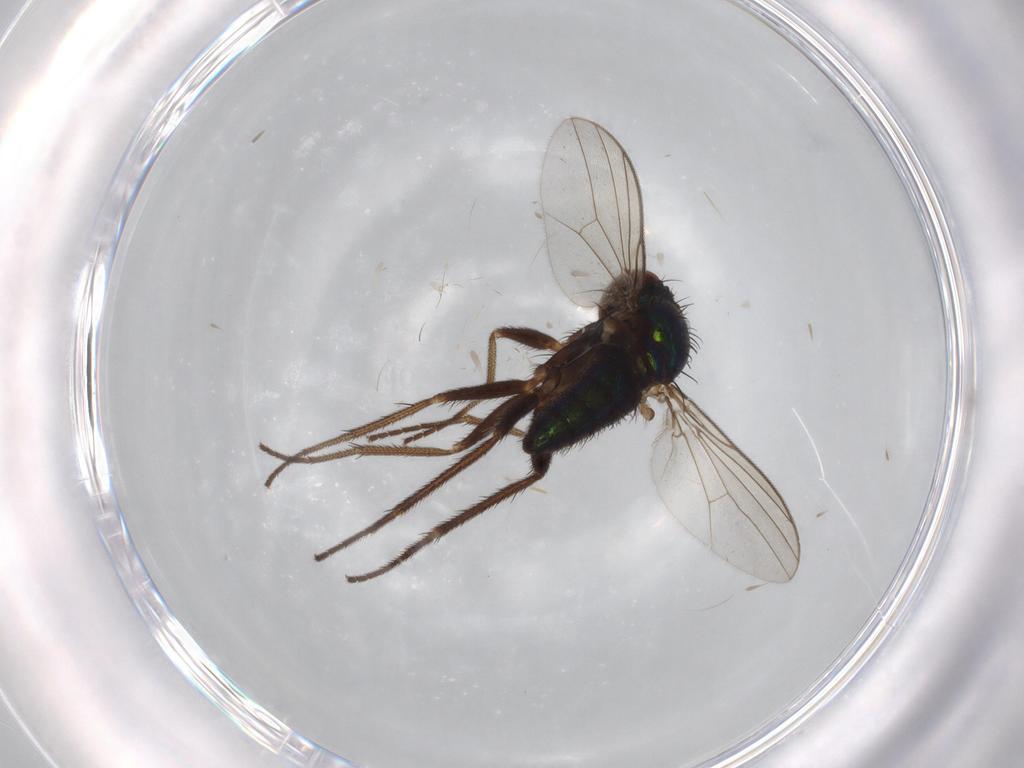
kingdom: Animalia
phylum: Arthropoda
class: Insecta
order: Diptera
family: Dolichopodidae
